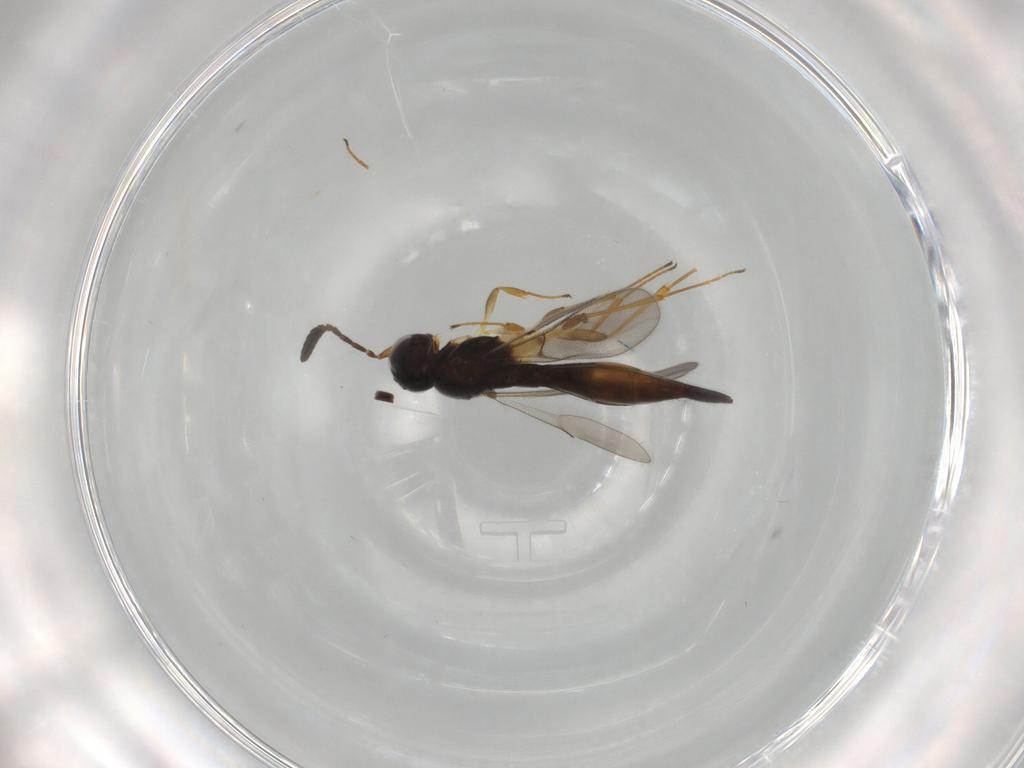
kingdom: Animalia
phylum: Arthropoda
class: Insecta
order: Hymenoptera
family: Scelionidae
